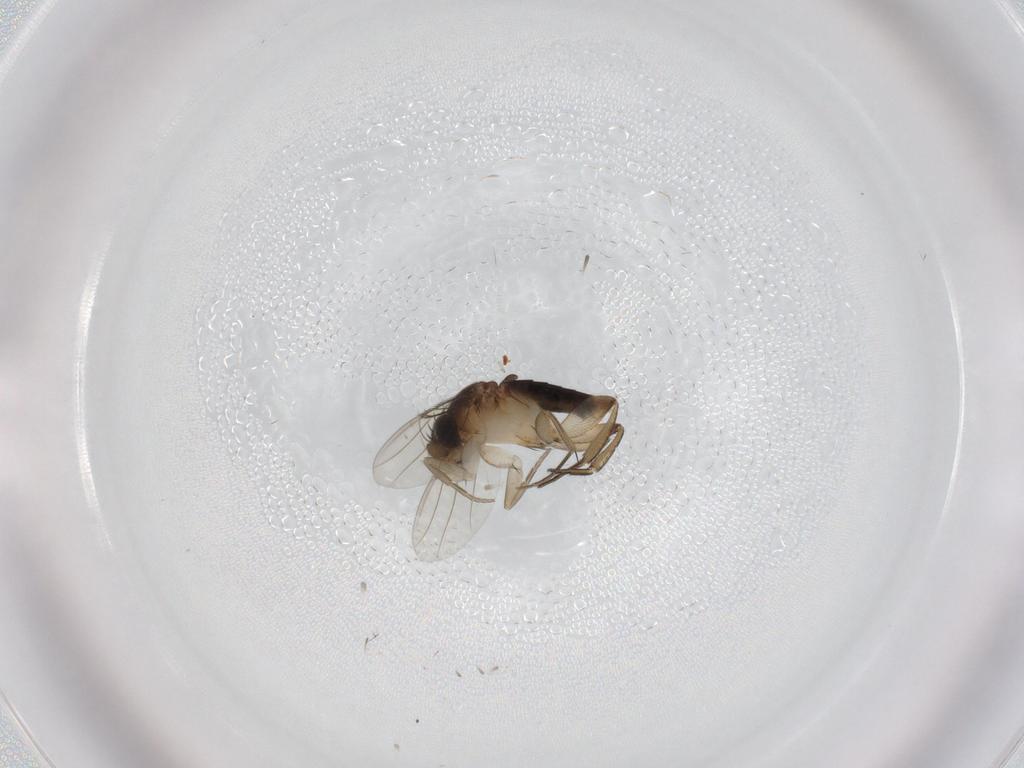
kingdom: Animalia
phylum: Arthropoda
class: Insecta
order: Diptera
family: Phoridae
